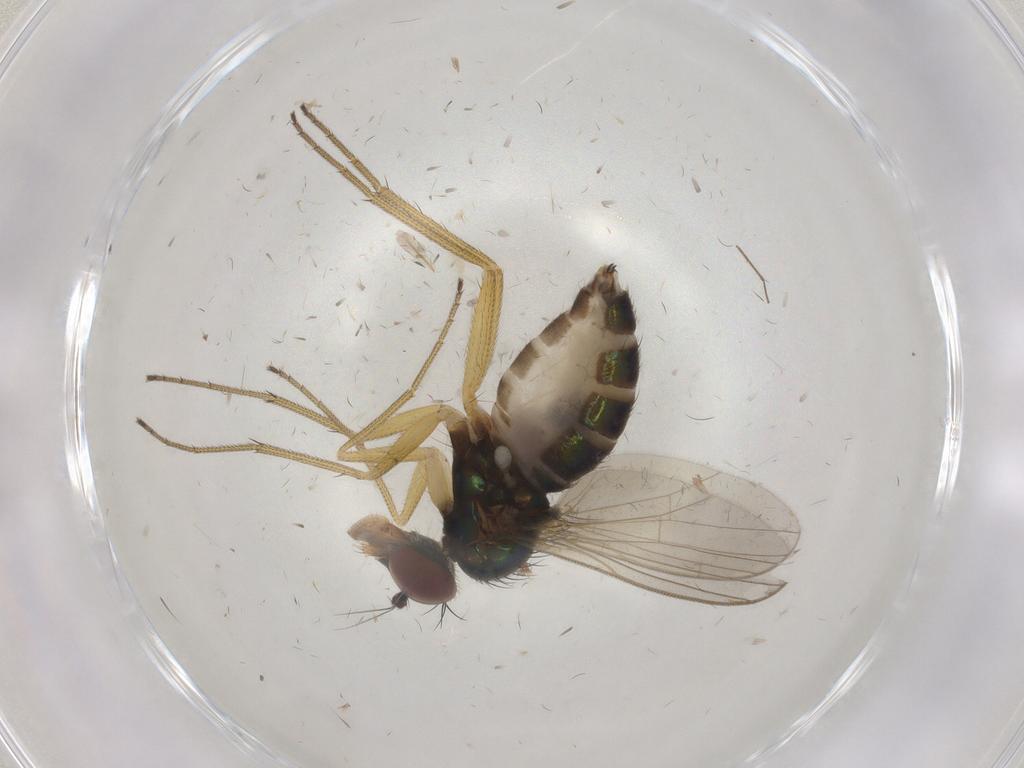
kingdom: Animalia
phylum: Arthropoda
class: Insecta
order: Diptera
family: Dolichopodidae
